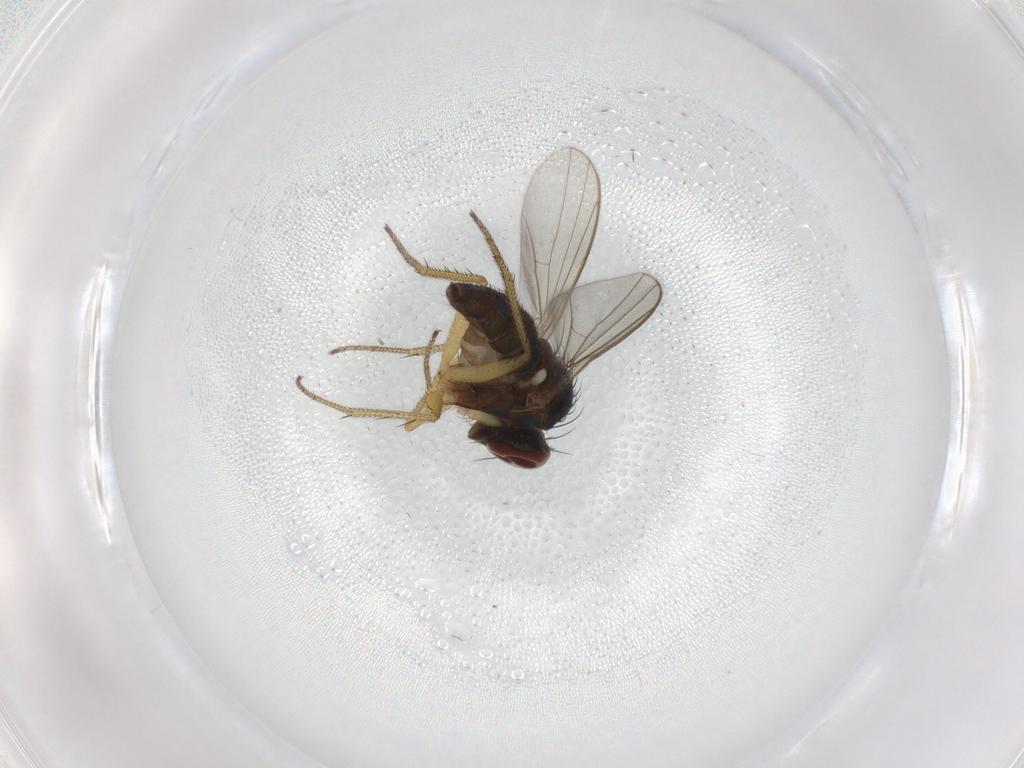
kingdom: Animalia
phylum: Arthropoda
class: Insecta
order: Diptera
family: Dolichopodidae
